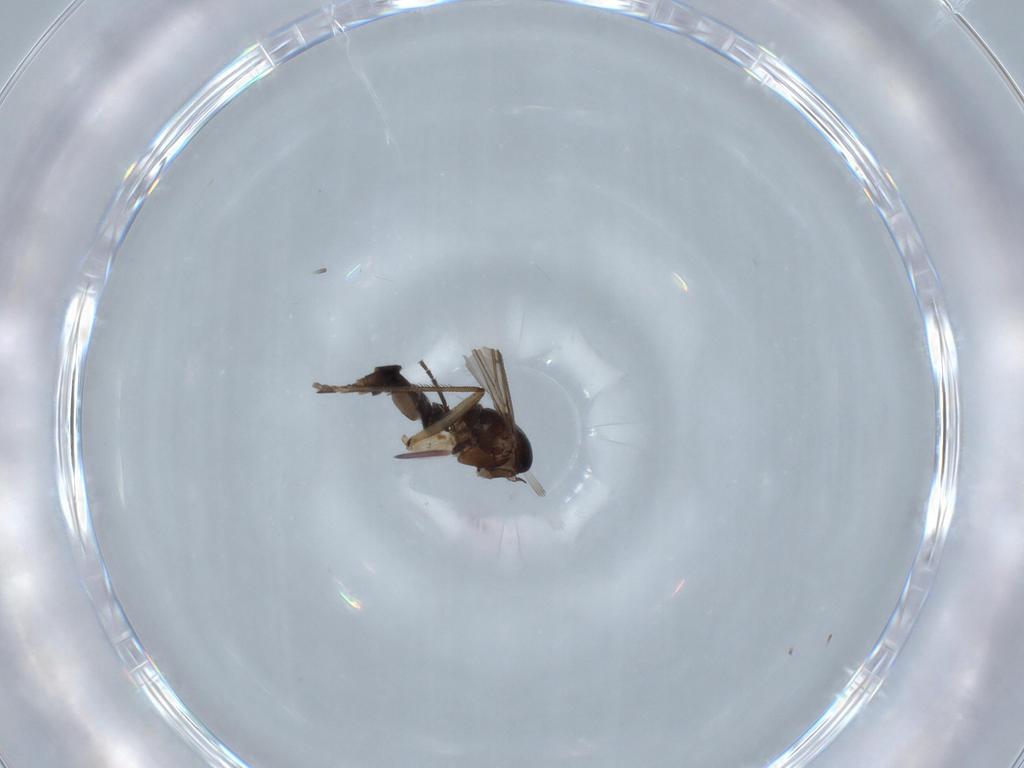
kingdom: Animalia
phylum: Arthropoda
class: Insecta
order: Diptera
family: Sciaridae
